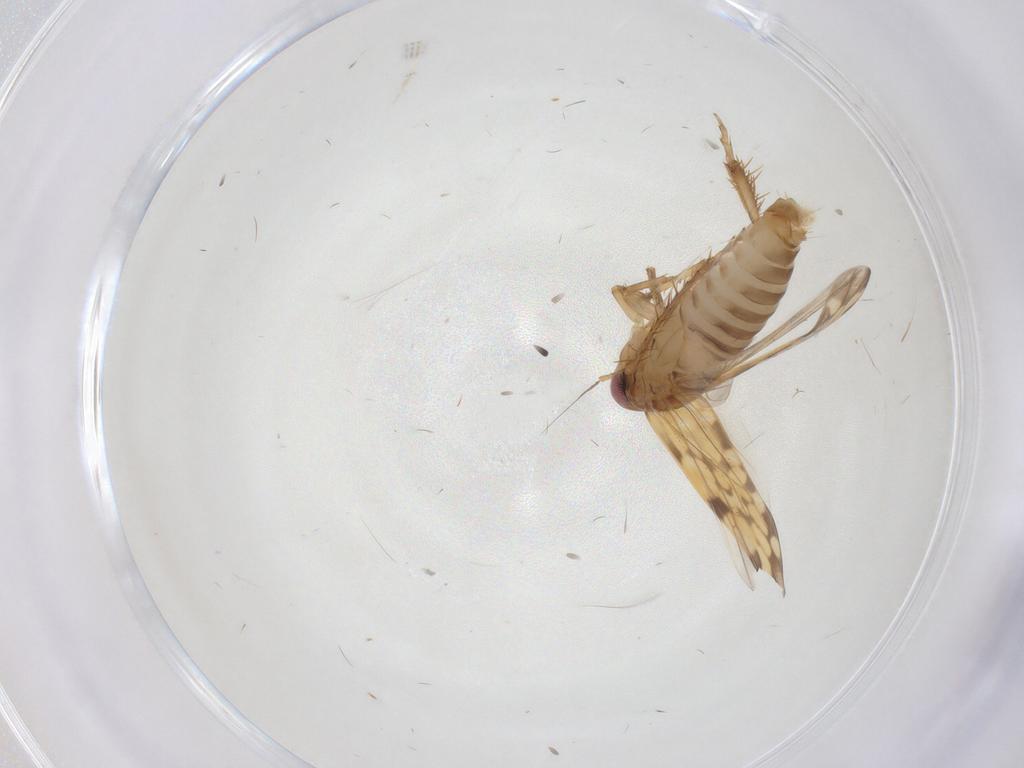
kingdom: Animalia
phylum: Arthropoda
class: Insecta
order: Hemiptera
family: Cicadellidae
